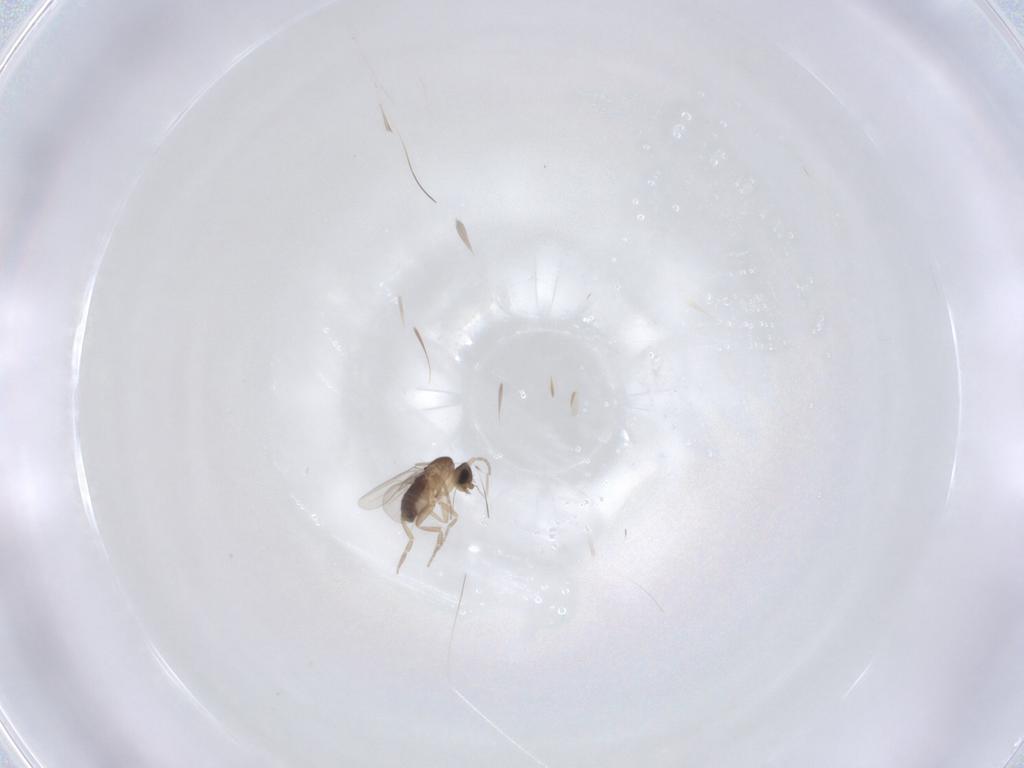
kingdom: Animalia
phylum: Arthropoda
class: Insecta
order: Diptera
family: Phoridae
